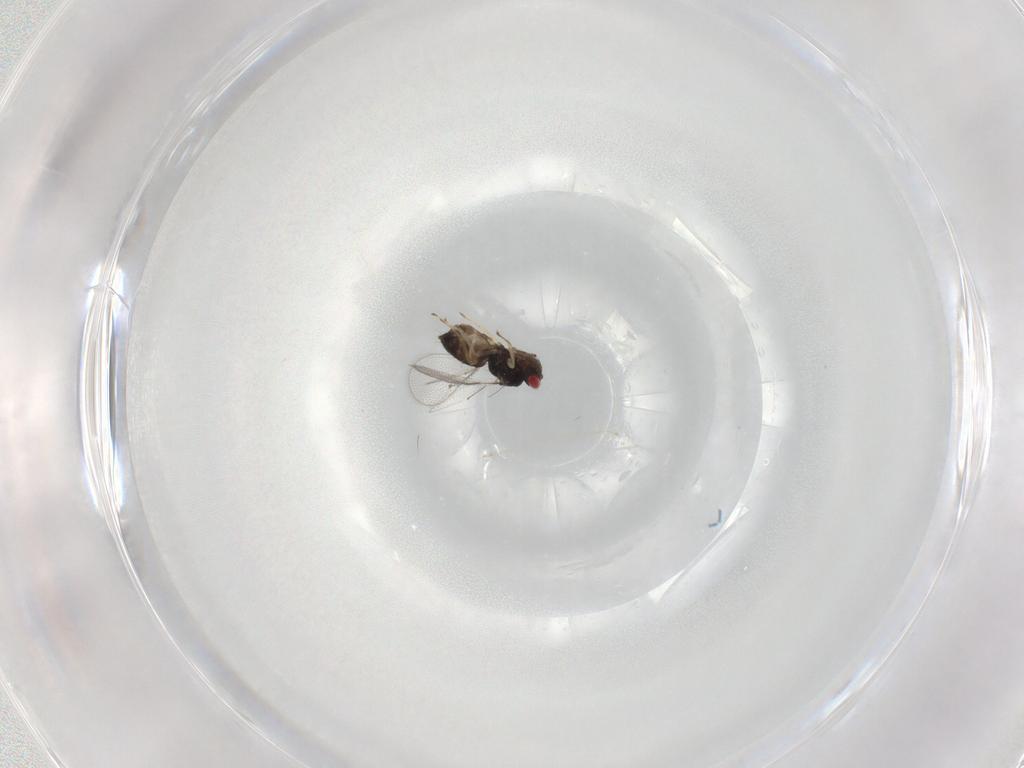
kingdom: Animalia
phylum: Arthropoda
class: Insecta
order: Hymenoptera
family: Eulophidae
